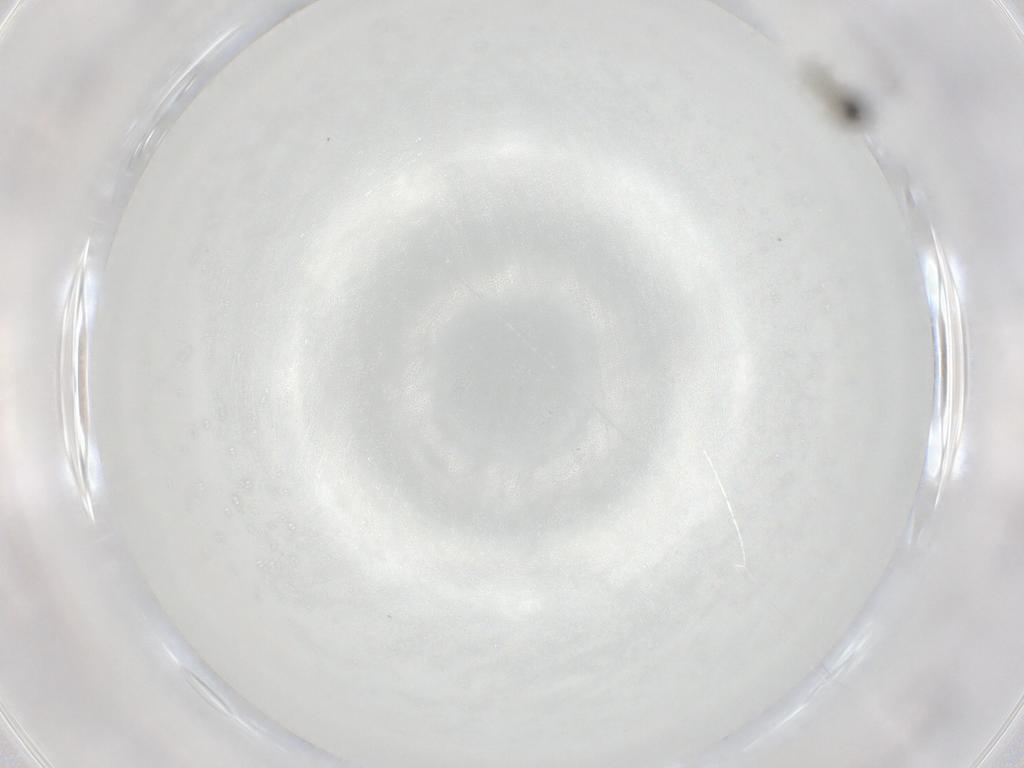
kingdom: Animalia
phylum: Arthropoda
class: Insecta
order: Diptera
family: Cecidomyiidae
